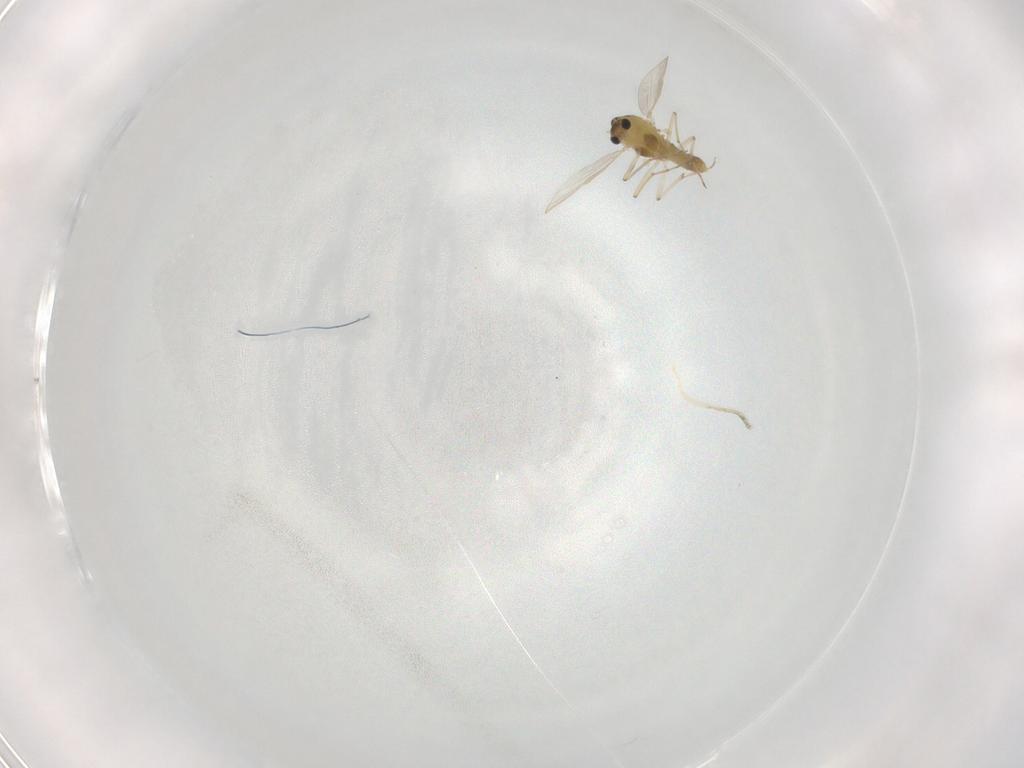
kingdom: Animalia
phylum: Arthropoda
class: Insecta
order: Diptera
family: Chironomidae
